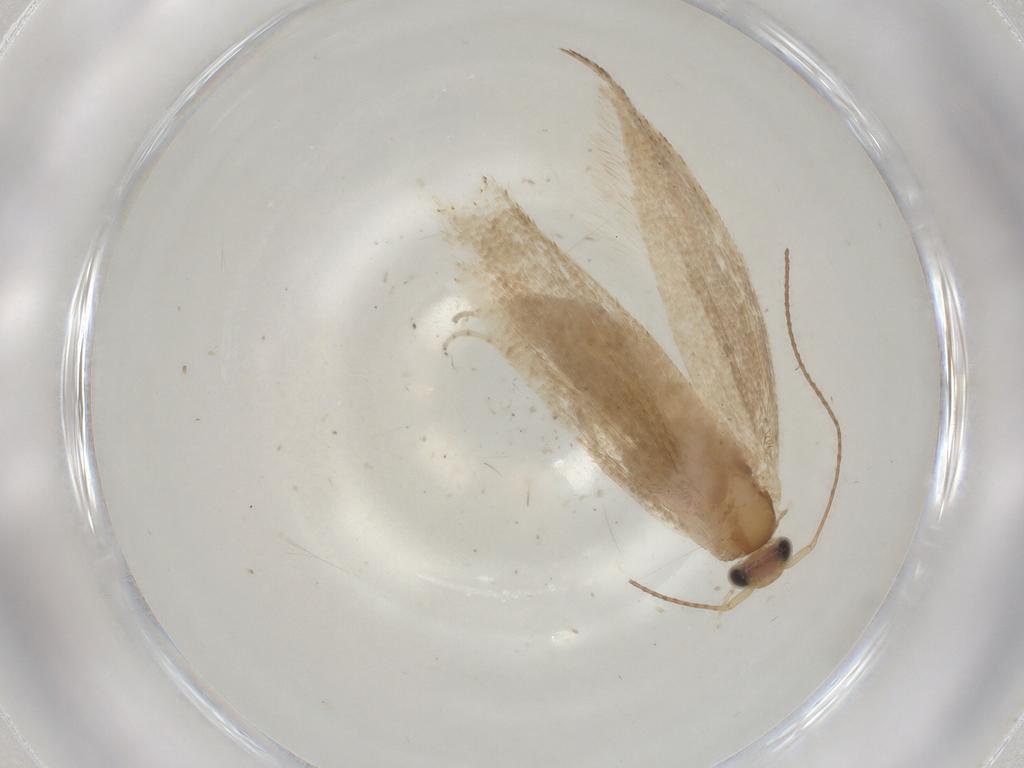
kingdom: Animalia
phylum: Arthropoda
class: Insecta
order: Lepidoptera
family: Argyresthiidae
